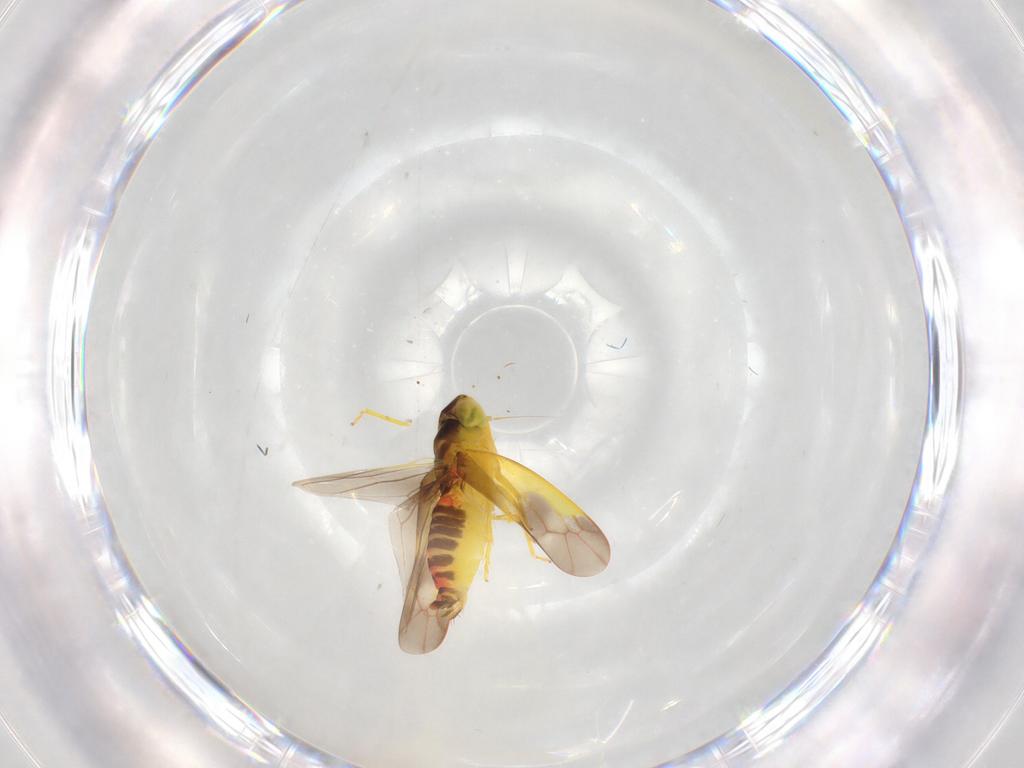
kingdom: Animalia
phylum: Arthropoda
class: Insecta
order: Hemiptera
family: Cicadellidae
